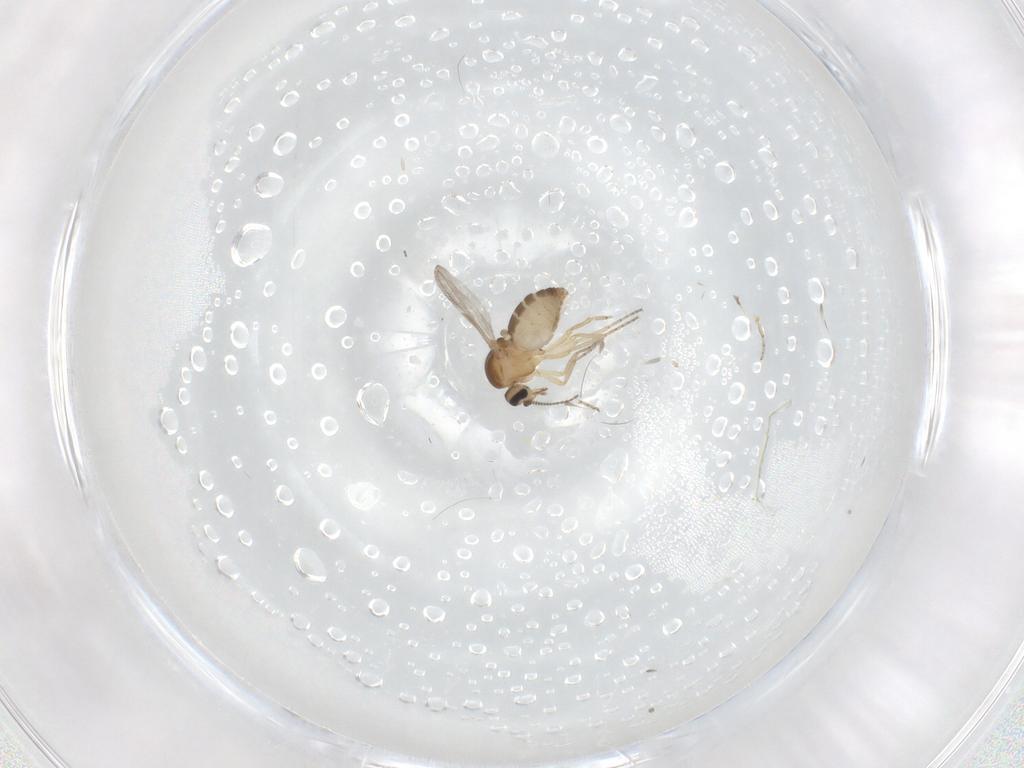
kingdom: Animalia
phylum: Arthropoda
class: Insecta
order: Diptera
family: Ceratopogonidae
